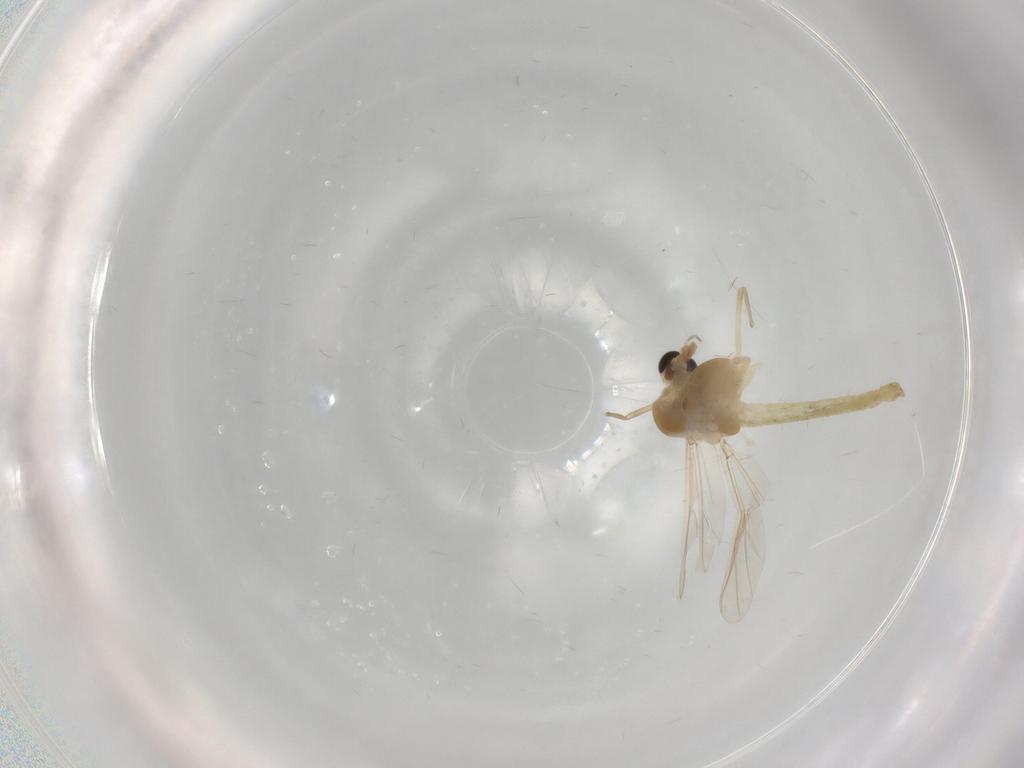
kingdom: Animalia
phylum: Arthropoda
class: Insecta
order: Diptera
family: Chironomidae
